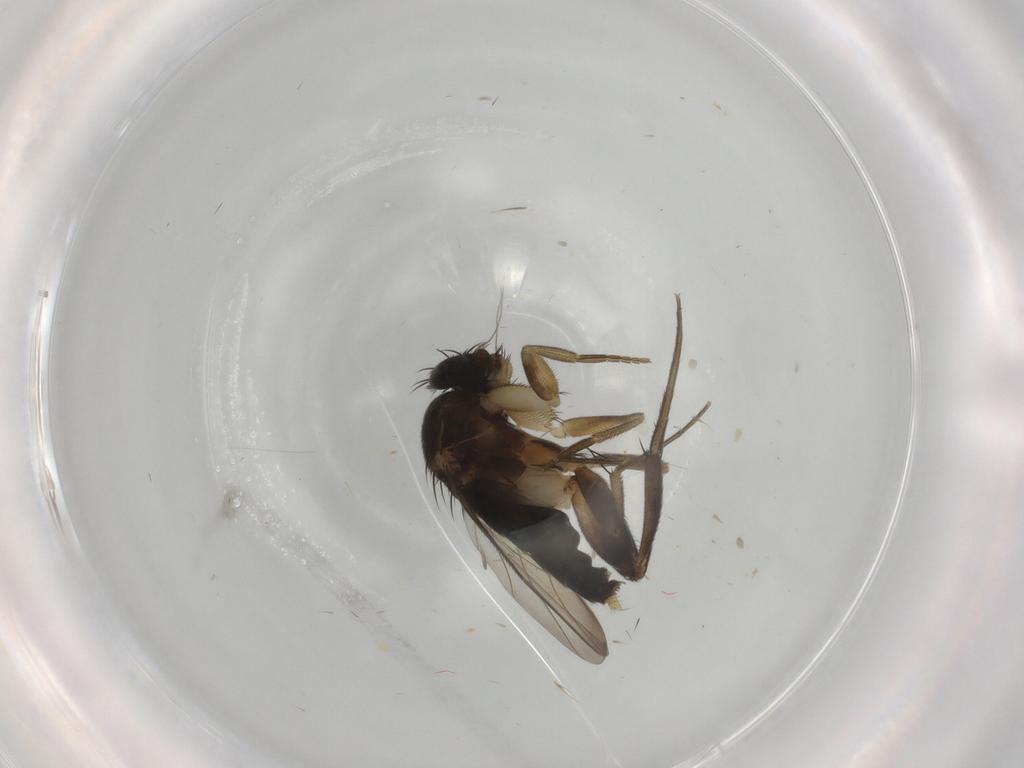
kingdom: Animalia
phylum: Arthropoda
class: Insecta
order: Diptera
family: Phoridae
